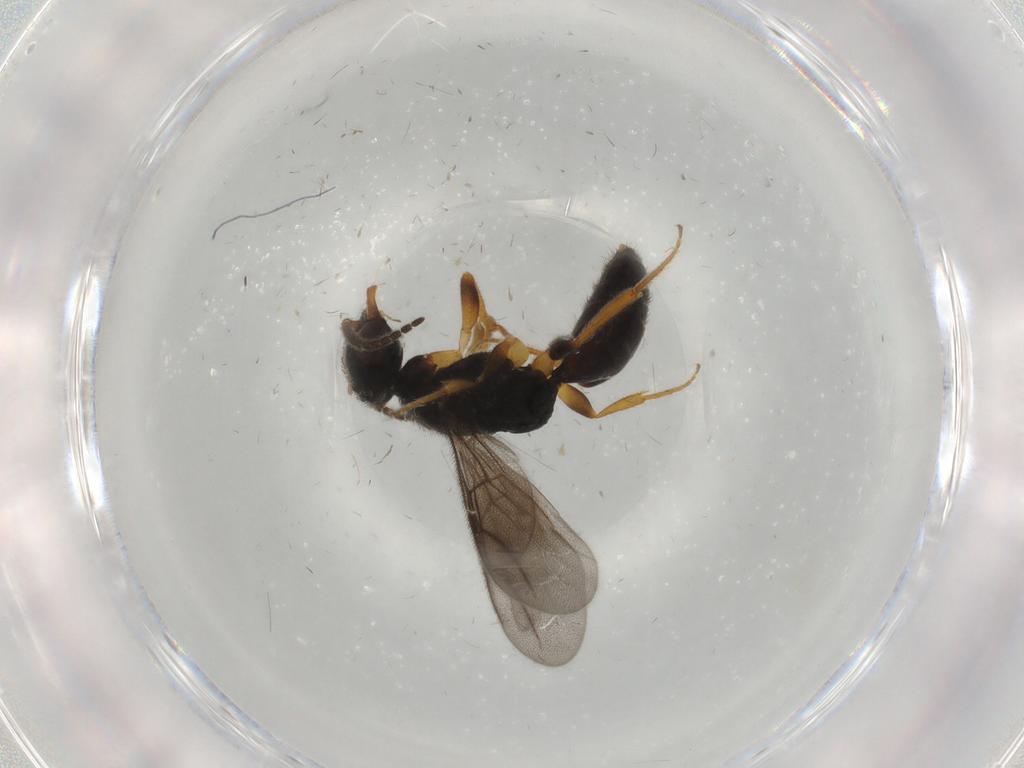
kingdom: Animalia
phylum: Arthropoda
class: Insecta
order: Hymenoptera
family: Bethylidae
